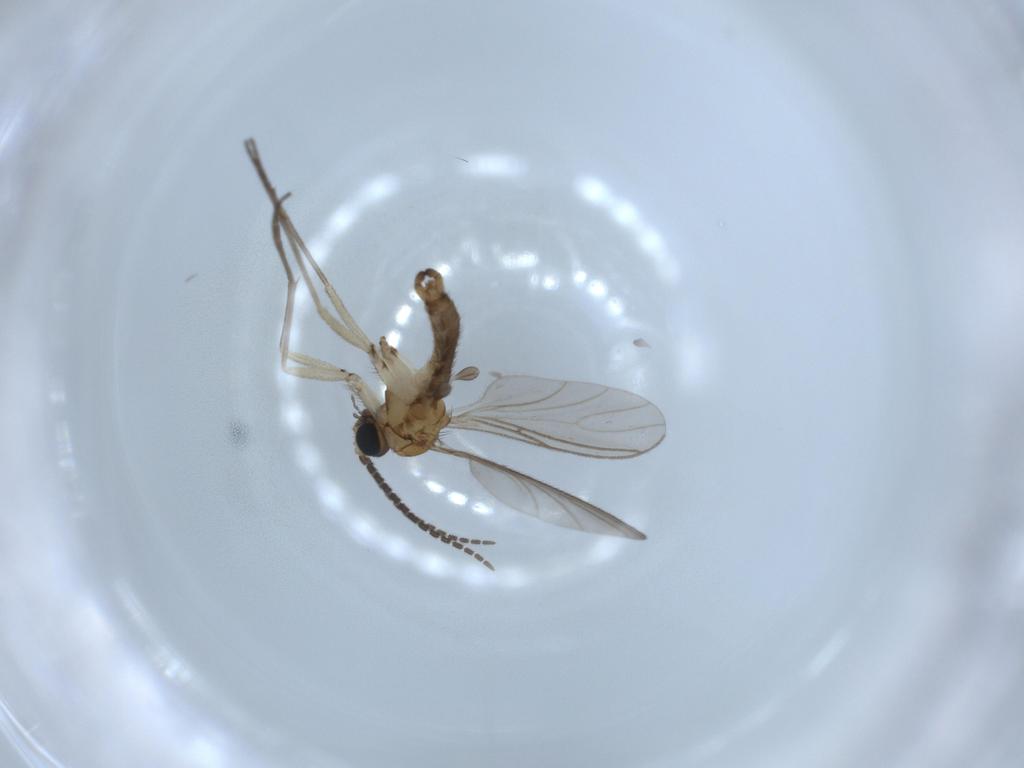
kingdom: Animalia
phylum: Arthropoda
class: Insecta
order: Diptera
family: Sciaridae
